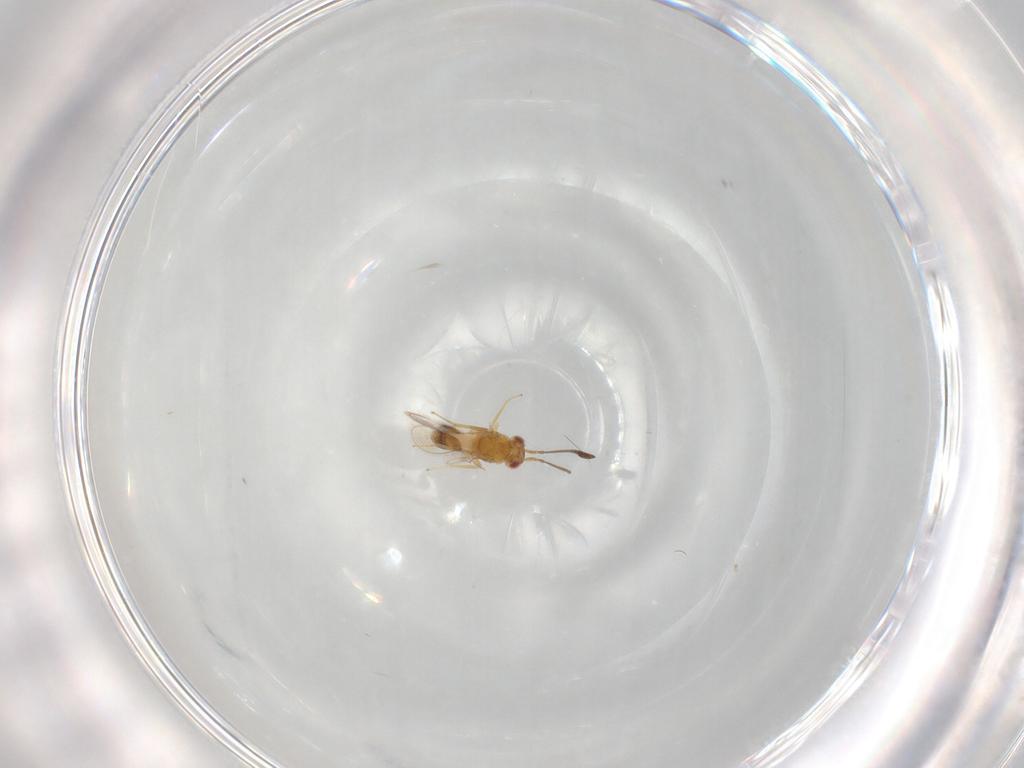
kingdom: Animalia
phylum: Arthropoda
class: Insecta
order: Hymenoptera
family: Mymaridae
